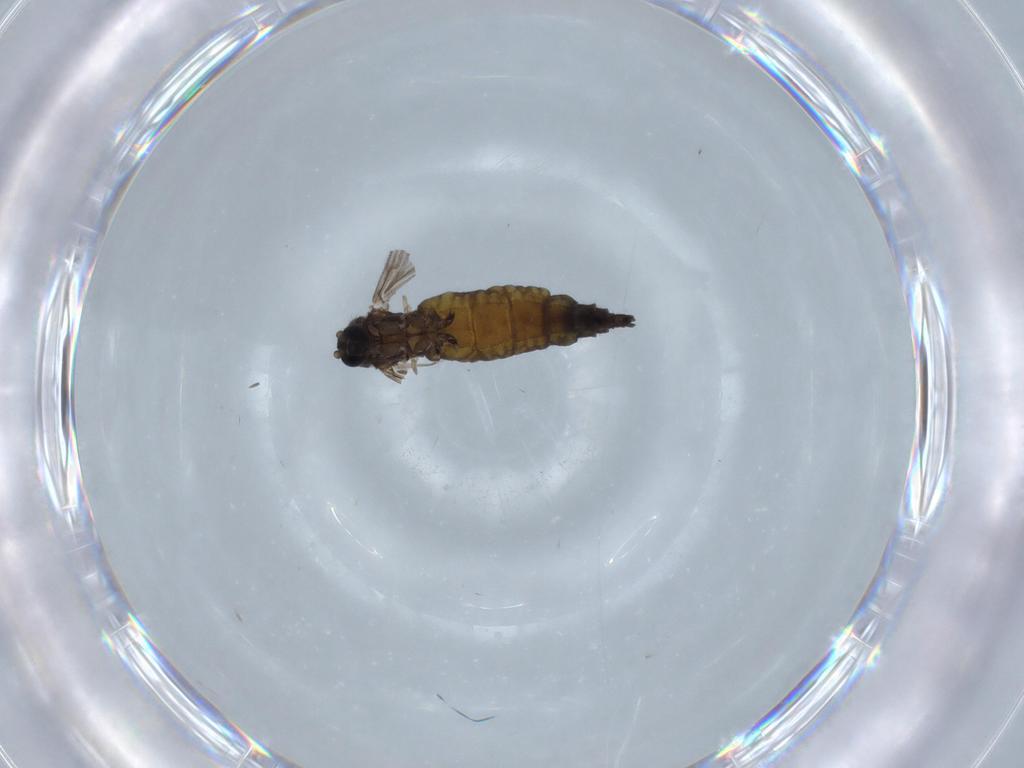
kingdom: Animalia
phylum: Arthropoda
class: Insecta
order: Diptera
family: Sciaridae
